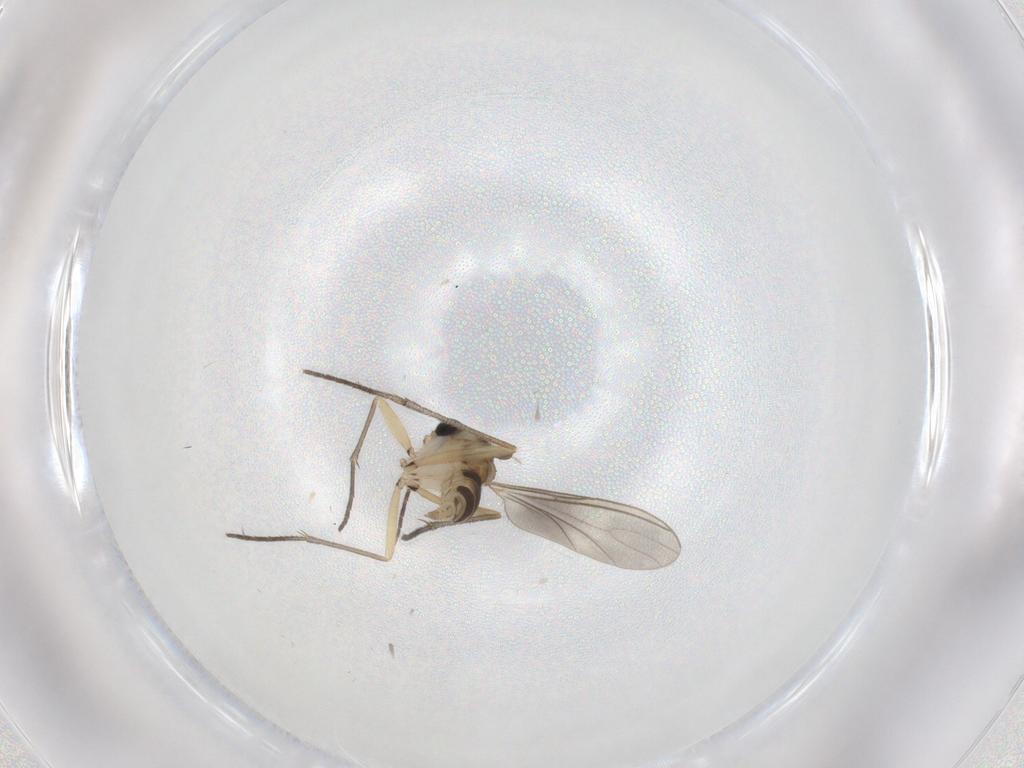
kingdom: Animalia
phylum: Arthropoda
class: Insecta
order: Diptera
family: Sciaridae
